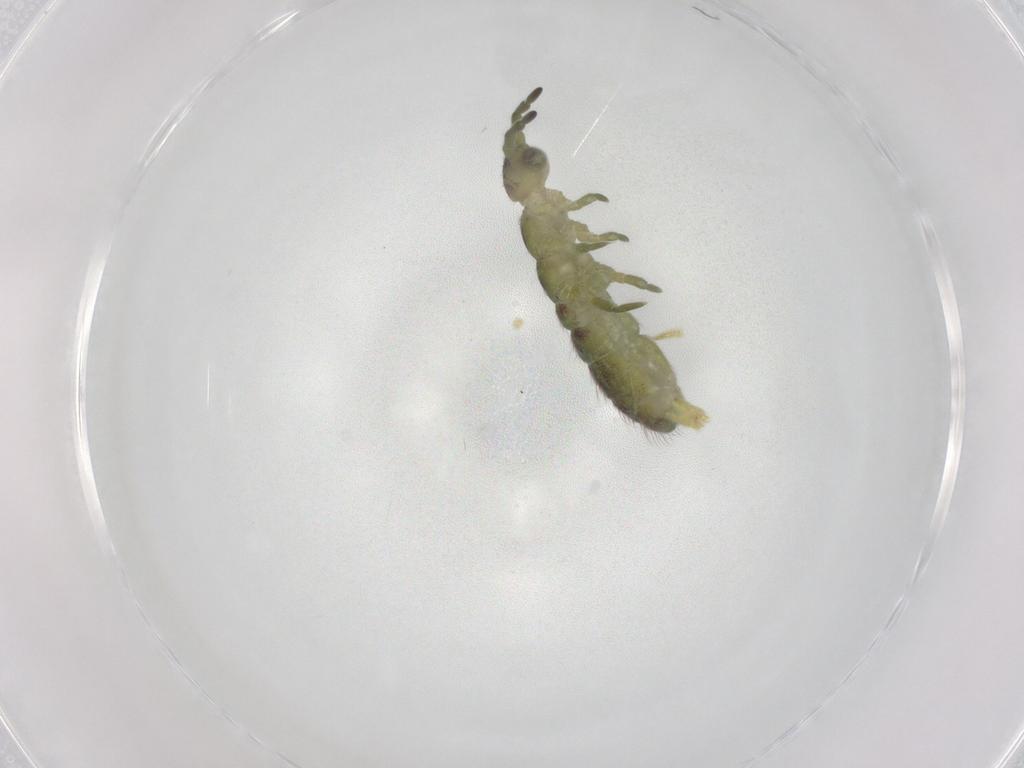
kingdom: Animalia
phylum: Arthropoda
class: Collembola
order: Entomobryomorpha
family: Isotomidae
